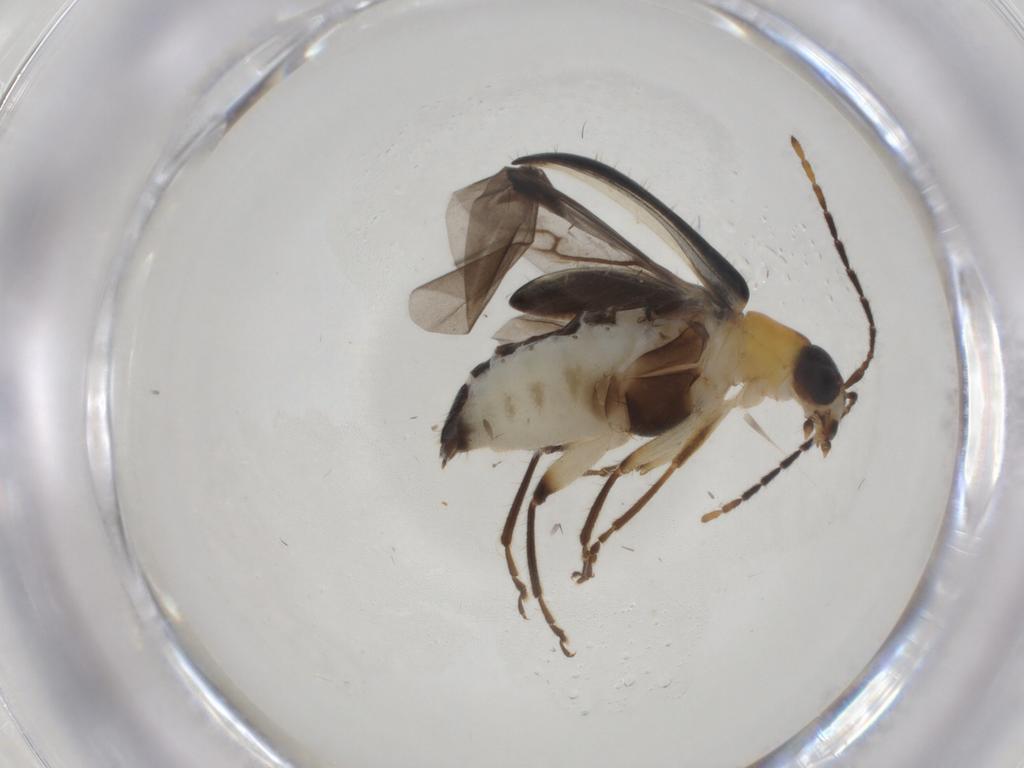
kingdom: Animalia
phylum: Arthropoda
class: Insecta
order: Coleoptera
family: Chrysomelidae
